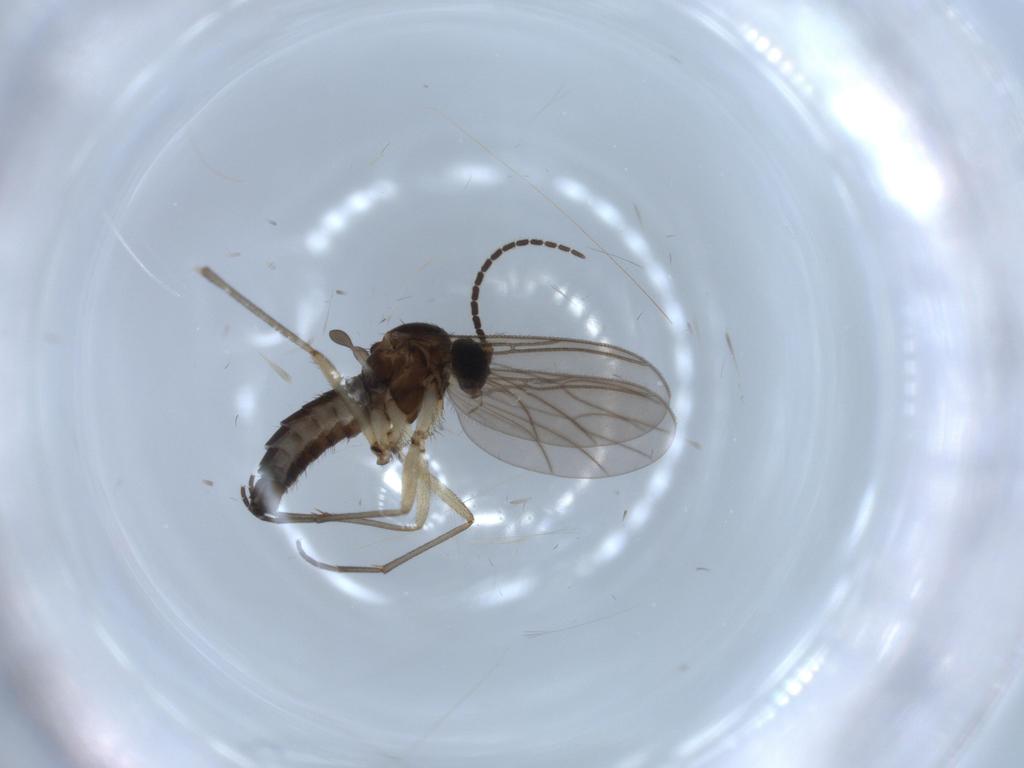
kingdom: Animalia
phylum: Arthropoda
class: Insecta
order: Diptera
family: Sciaridae
